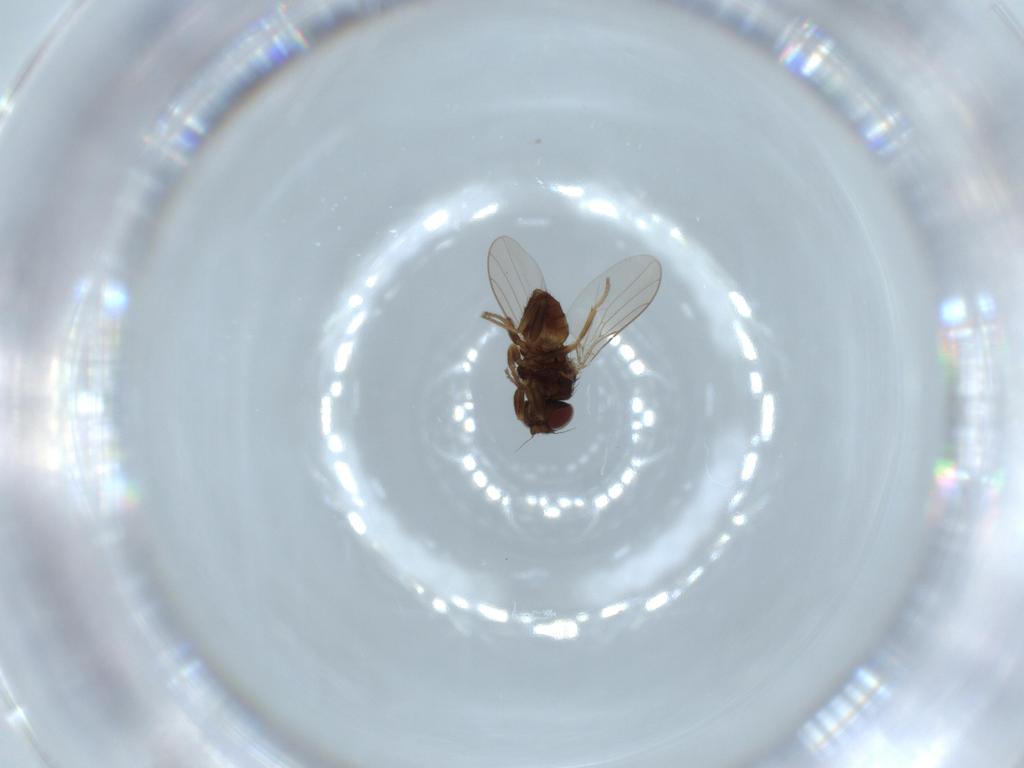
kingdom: Animalia
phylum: Arthropoda
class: Insecta
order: Diptera
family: Chloropidae
